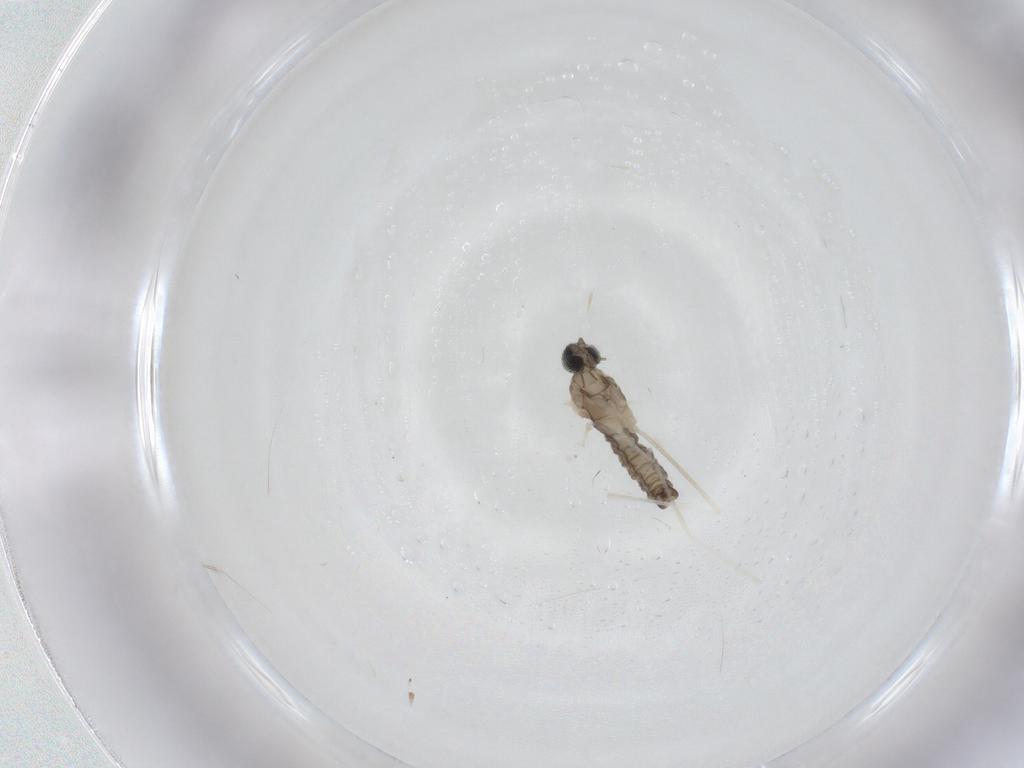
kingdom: Animalia
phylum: Arthropoda
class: Insecta
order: Diptera
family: Cecidomyiidae
